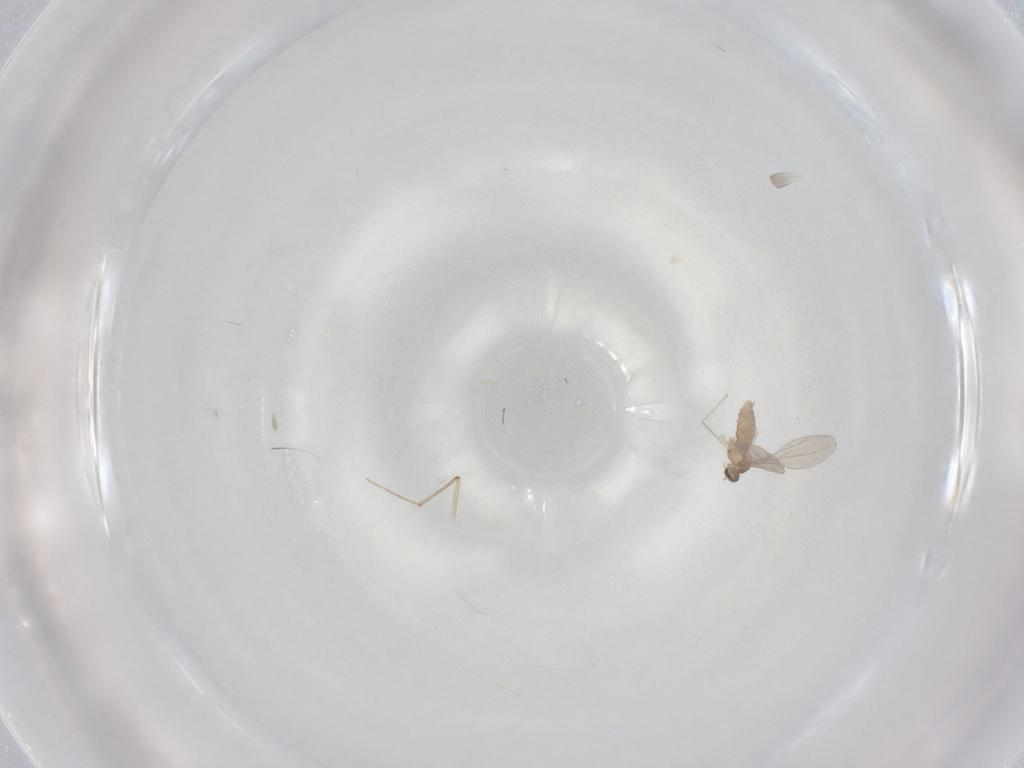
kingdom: Animalia
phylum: Arthropoda
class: Insecta
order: Diptera
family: Chironomidae
